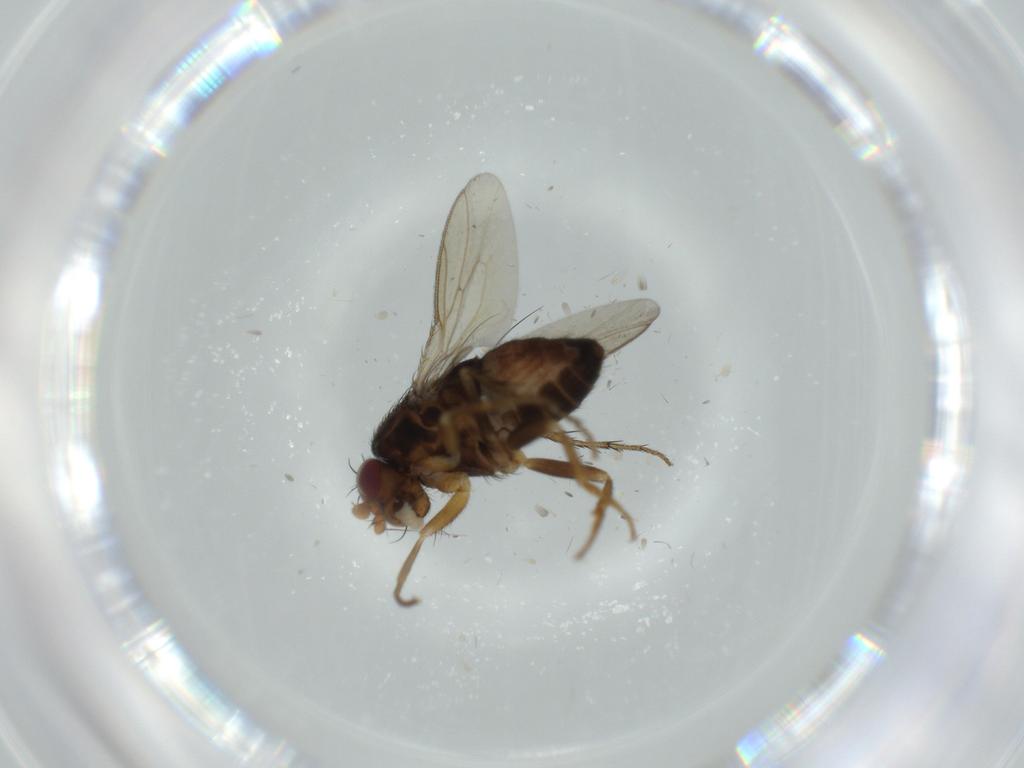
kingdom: Animalia
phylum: Arthropoda
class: Insecta
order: Diptera
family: Sphaeroceridae
